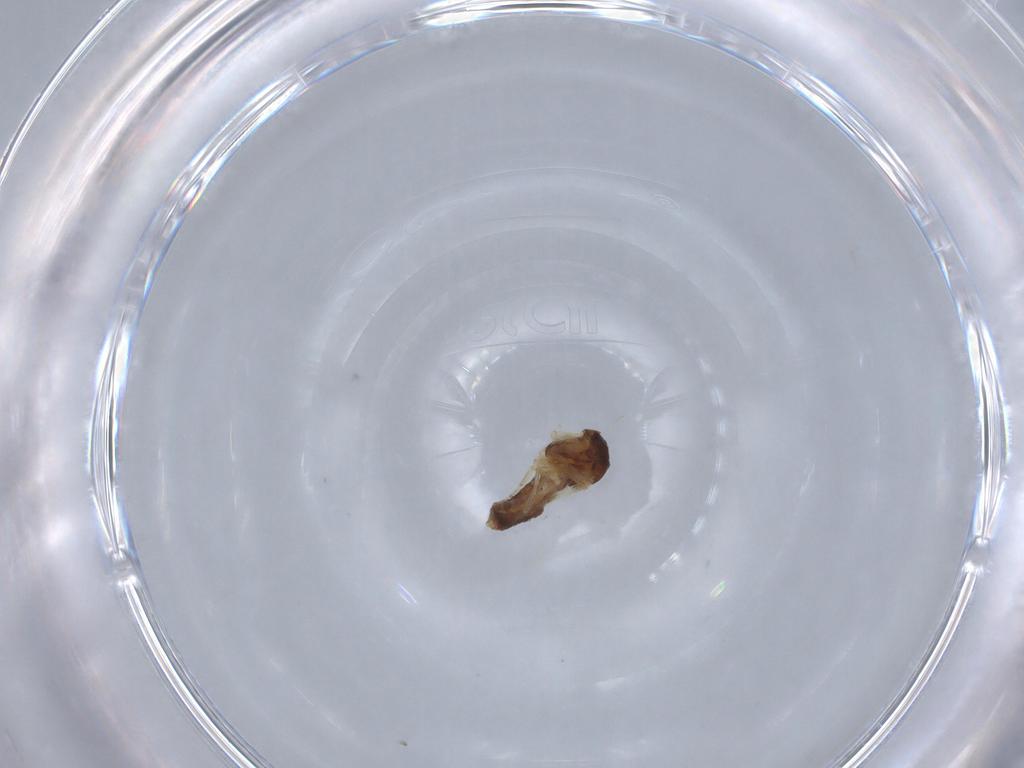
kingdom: Animalia
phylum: Arthropoda
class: Insecta
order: Diptera
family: Ceratopogonidae
